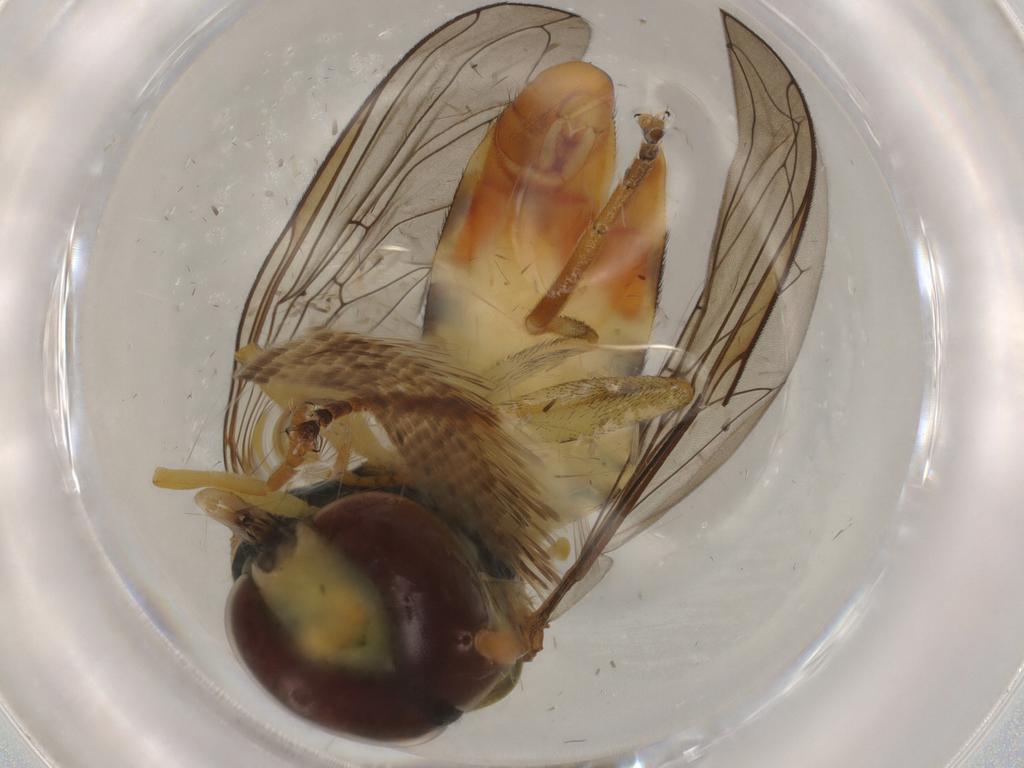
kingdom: Animalia
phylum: Arthropoda
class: Insecta
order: Diptera
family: Syrphidae
